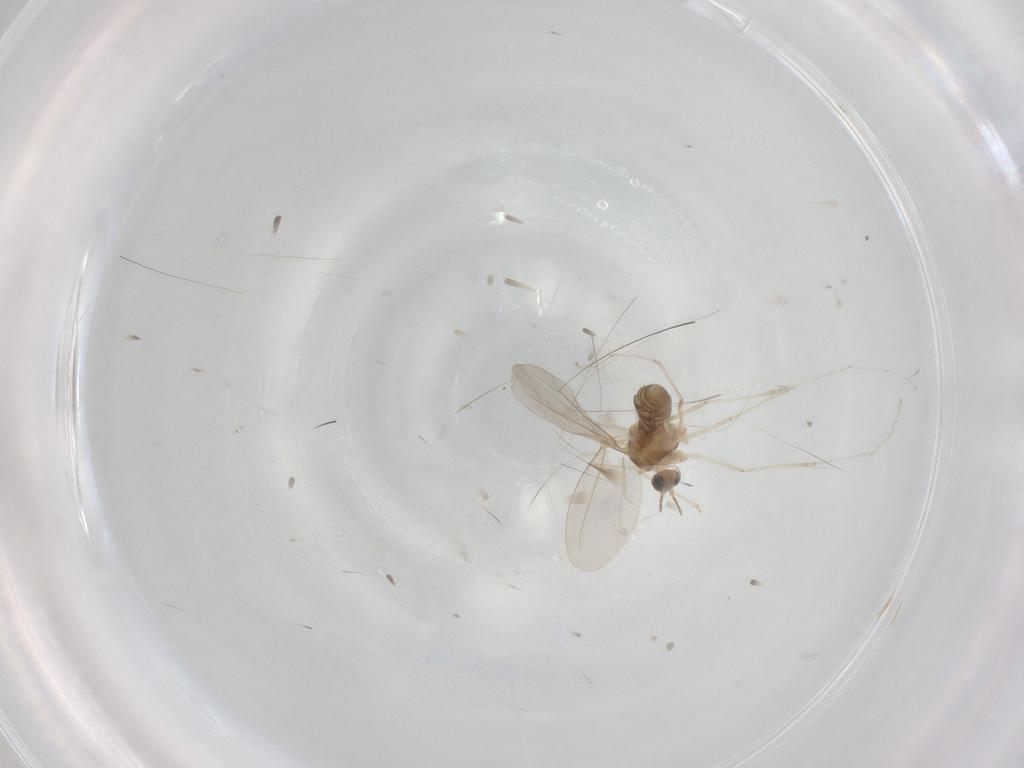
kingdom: Animalia
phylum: Arthropoda
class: Insecta
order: Diptera
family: Cecidomyiidae
